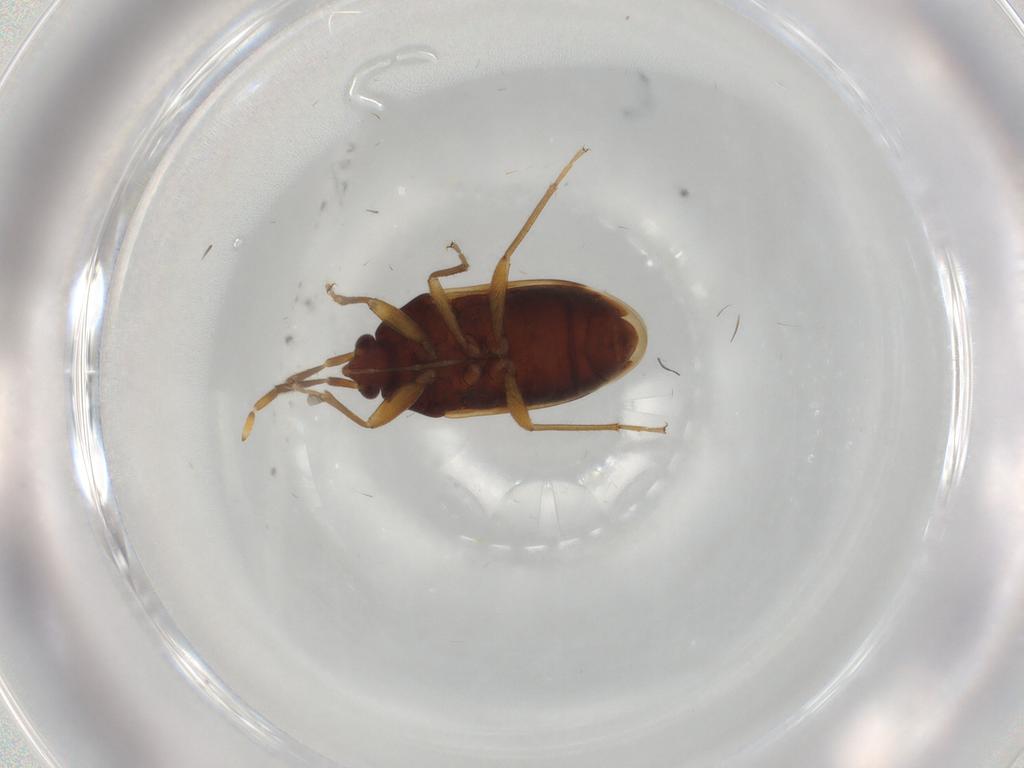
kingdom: Animalia
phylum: Arthropoda
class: Insecta
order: Hemiptera
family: Rhyparochromidae
